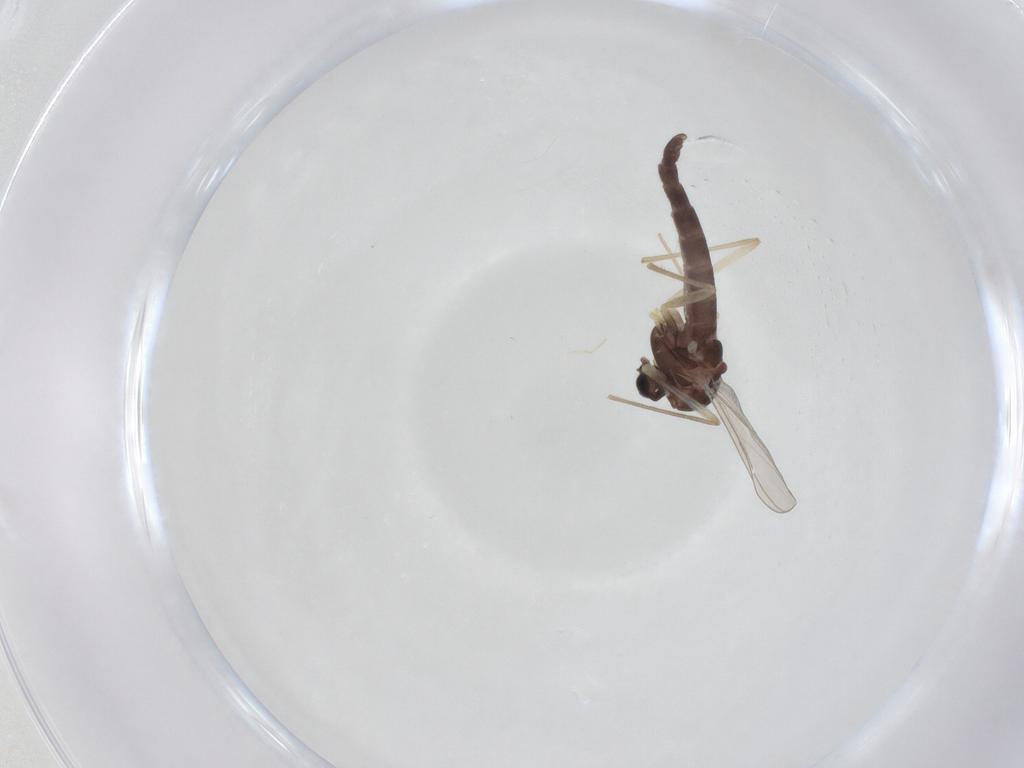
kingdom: Animalia
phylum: Arthropoda
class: Insecta
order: Diptera
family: Chironomidae
